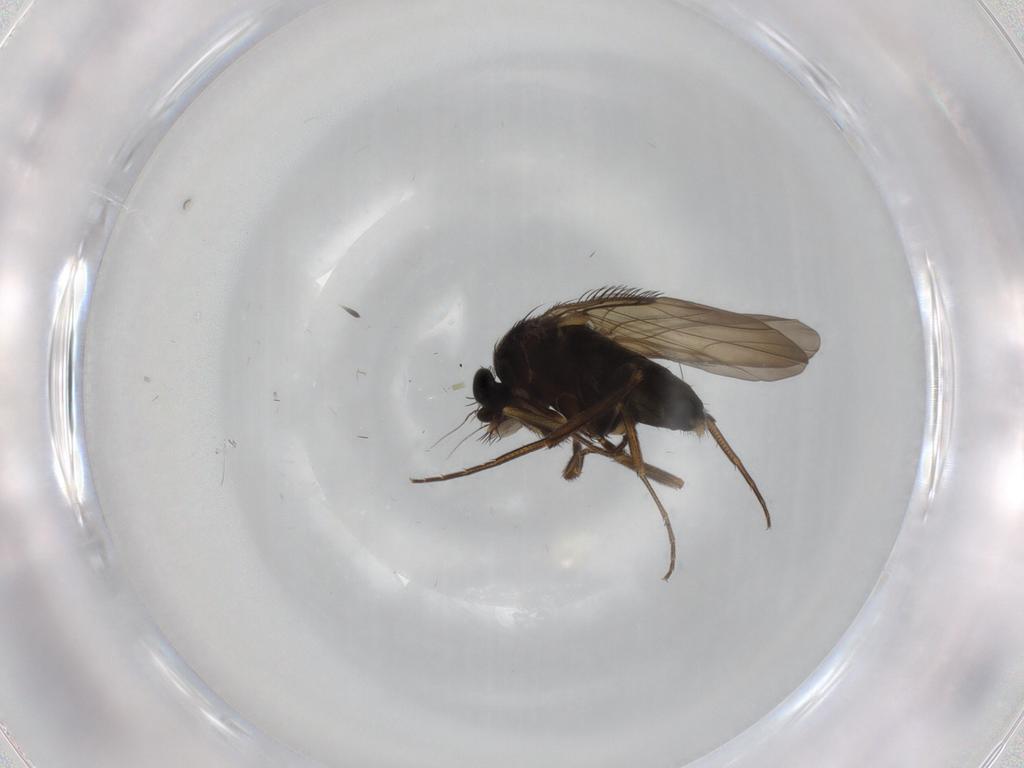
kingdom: Animalia
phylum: Arthropoda
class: Insecta
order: Diptera
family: Phoridae
